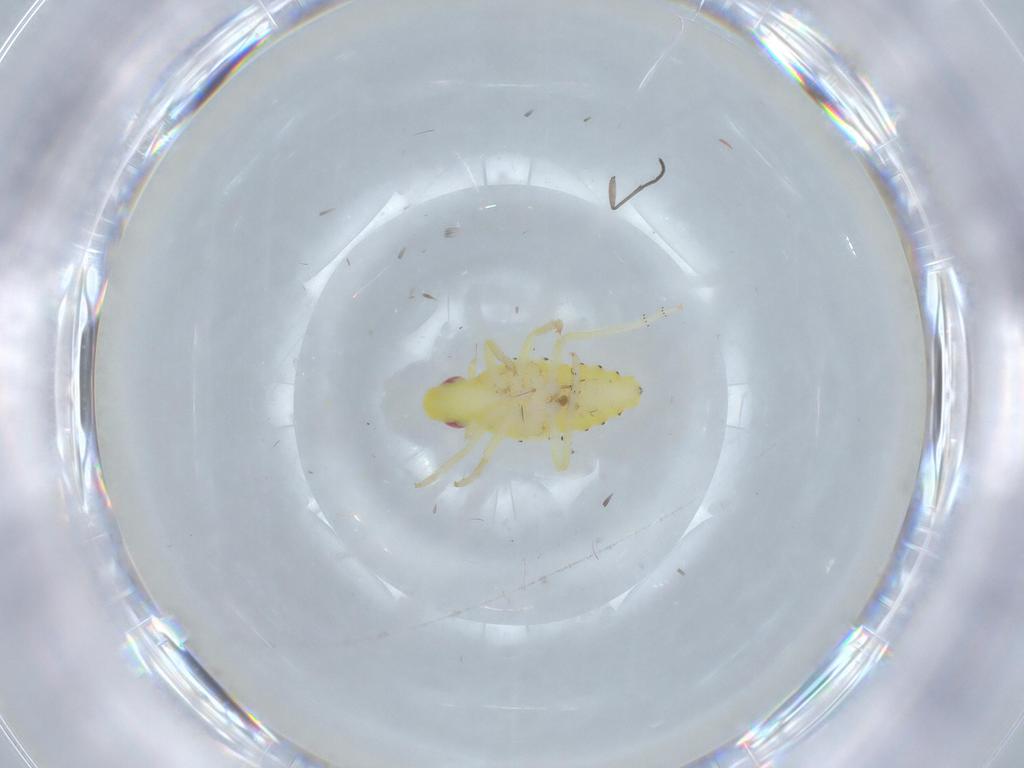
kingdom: Animalia
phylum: Arthropoda
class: Insecta
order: Hemiptera
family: Tropiduchidae
